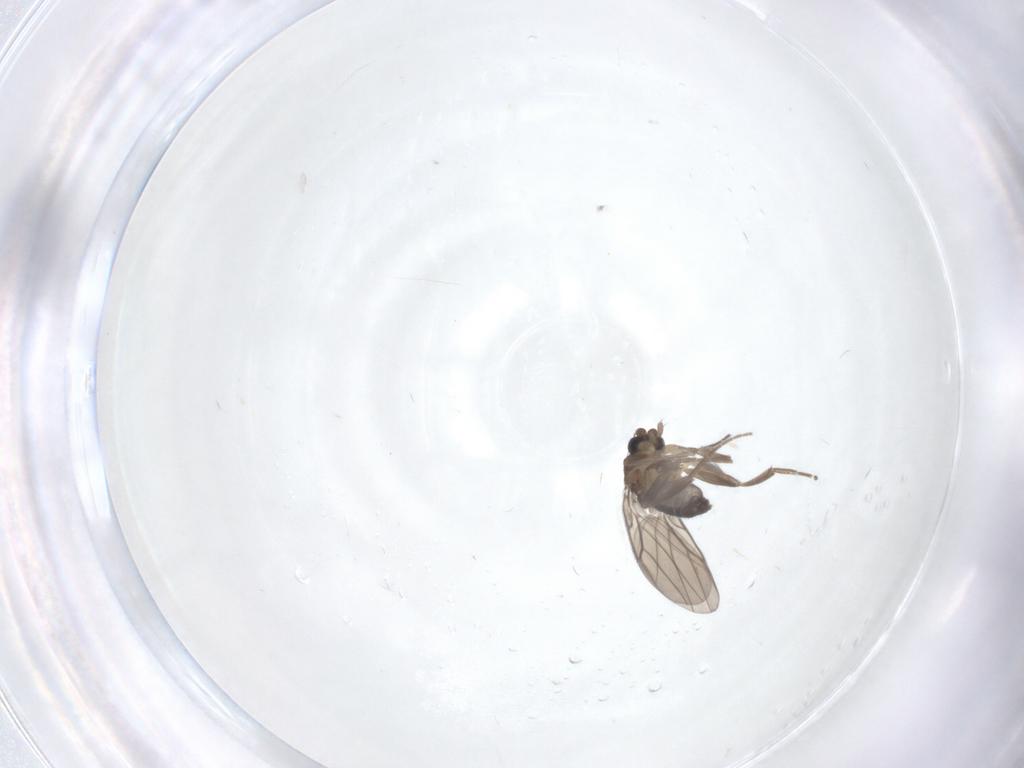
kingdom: Animalia
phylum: Arthropoda
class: Insecta
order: Diptera
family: Sciaridae
